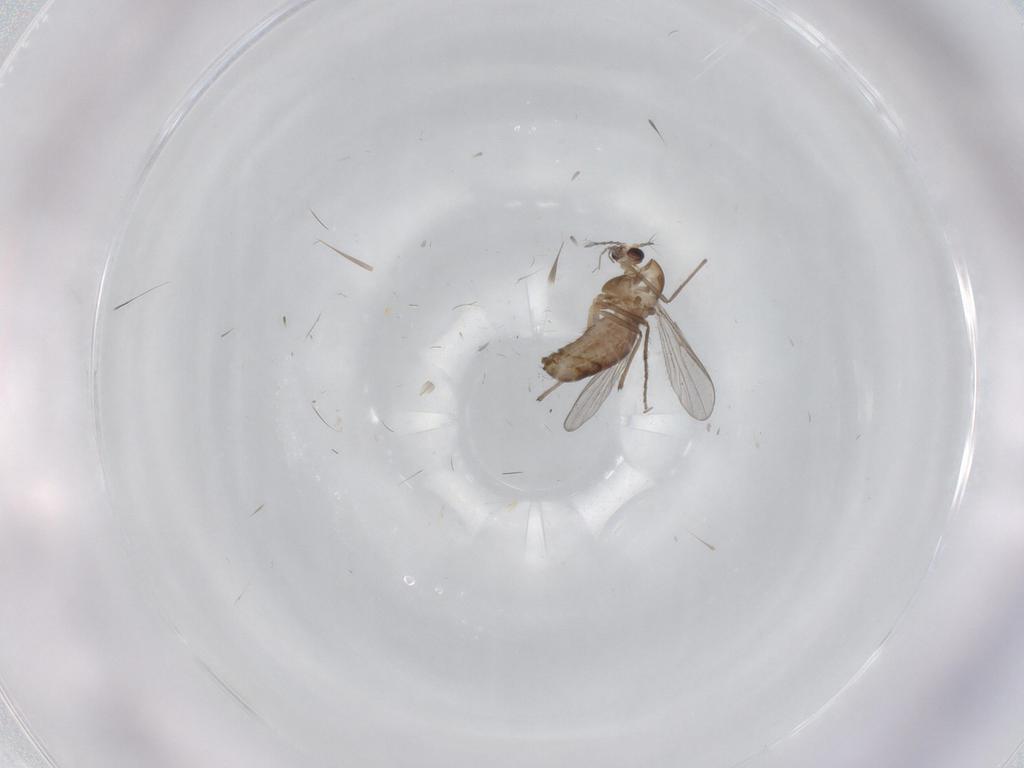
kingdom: Animalia
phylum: Arthropoda
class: Insecta
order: Diptera
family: Chironomidae
